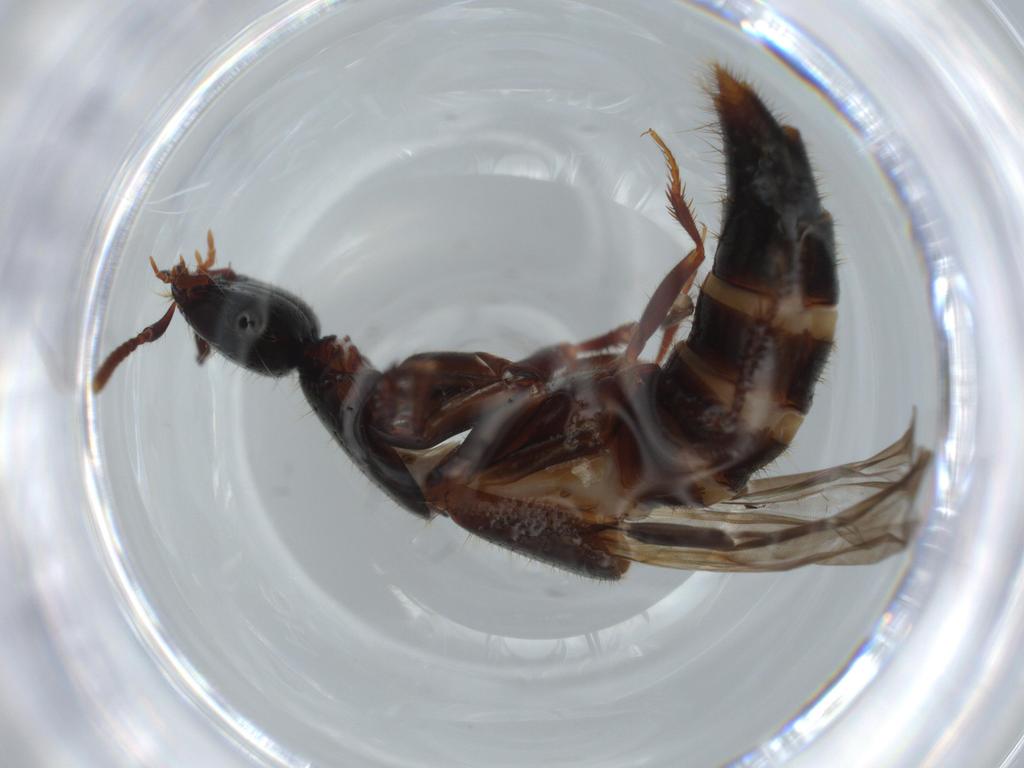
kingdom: Animalia
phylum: Arthropoda
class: Insecta
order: Coleoptera
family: Staphylinidae
